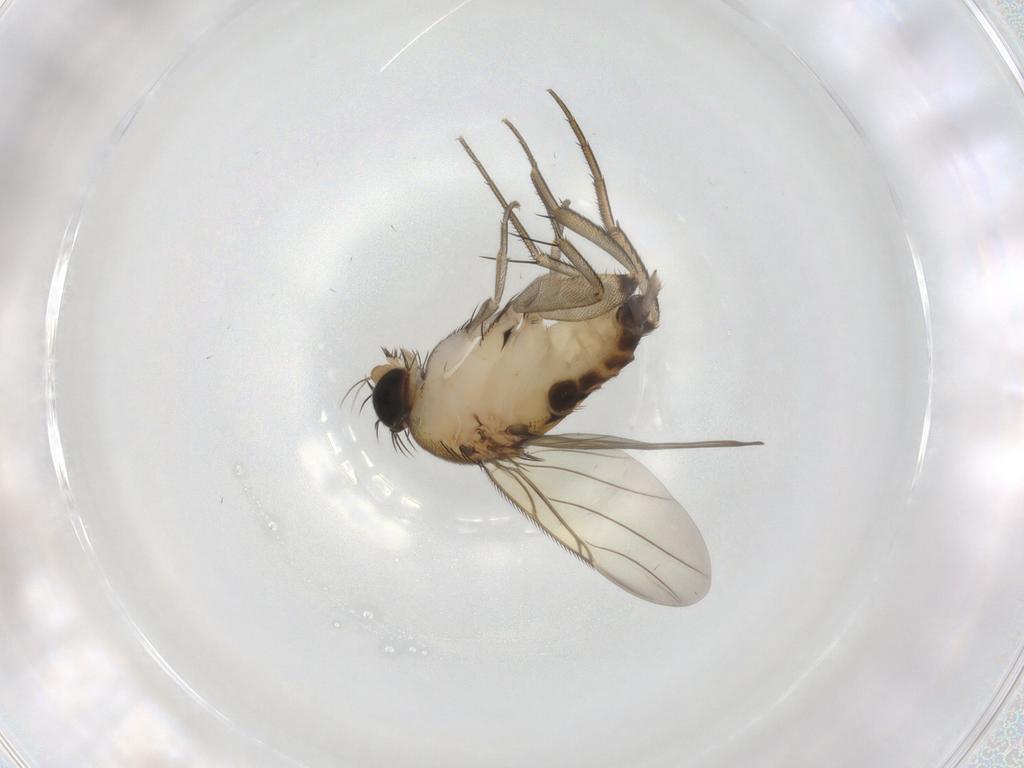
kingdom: Animalia
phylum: Arthropoda
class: Insecta
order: Diptera
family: Phoridae
